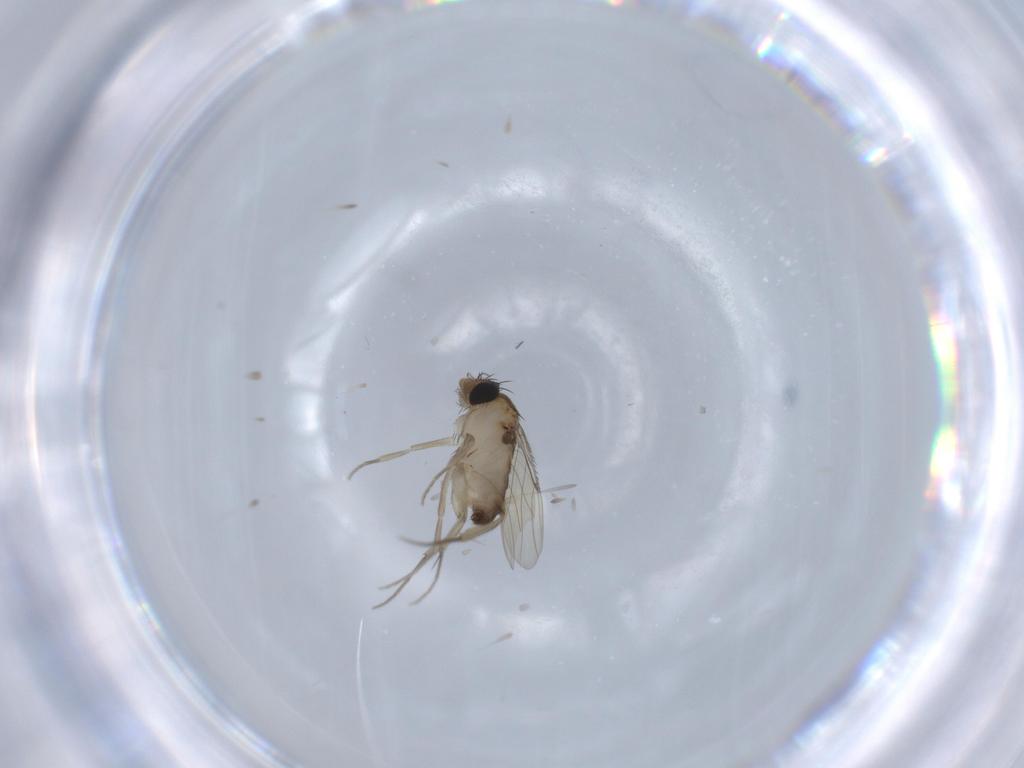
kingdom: Animalia
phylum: Arthropoda
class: Insecta
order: Diptera
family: Phoridae
